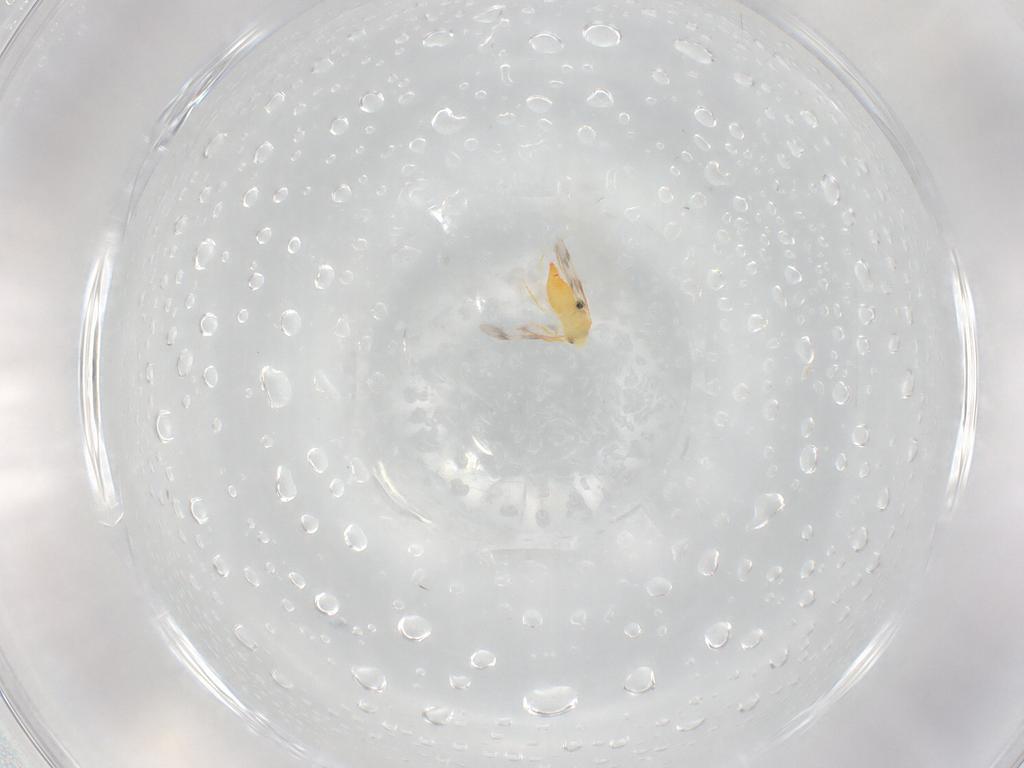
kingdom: Animalia
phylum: Arthropoda
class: Insecta
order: Hemiptera
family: Aleyrodidae
